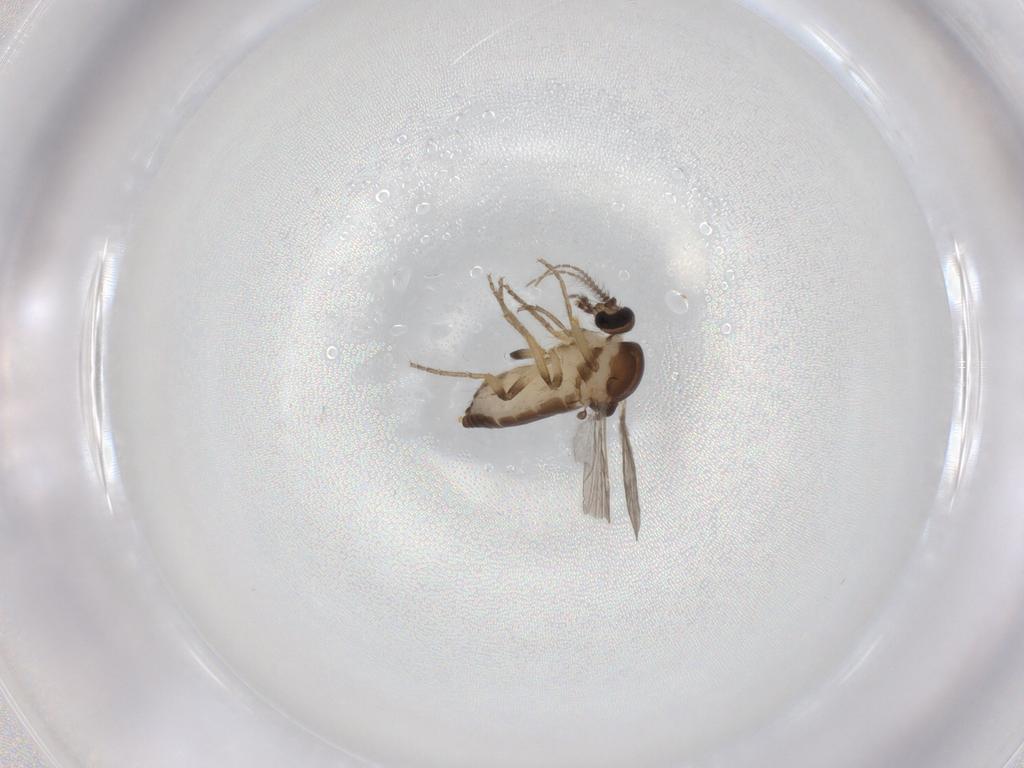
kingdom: Animalia
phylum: Arthropoda
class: Insecta
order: Diptera
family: Ceratopogonidae
